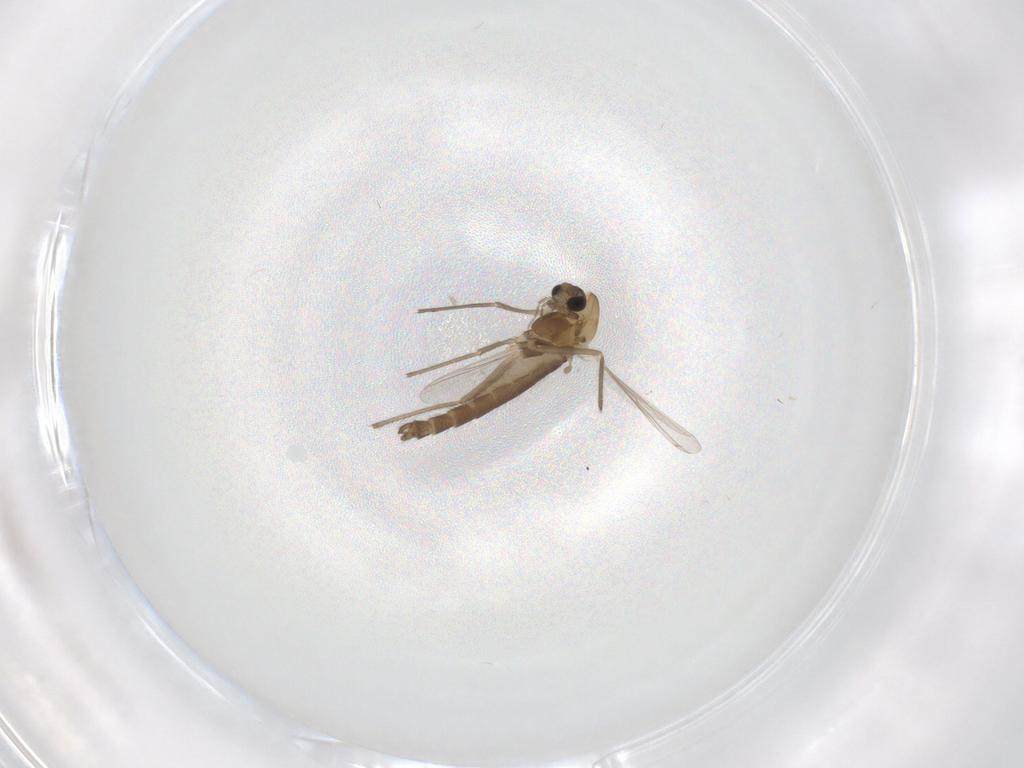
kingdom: Animalia
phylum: Arthropoda
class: Insecta
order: Diptera
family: Chironomidae
